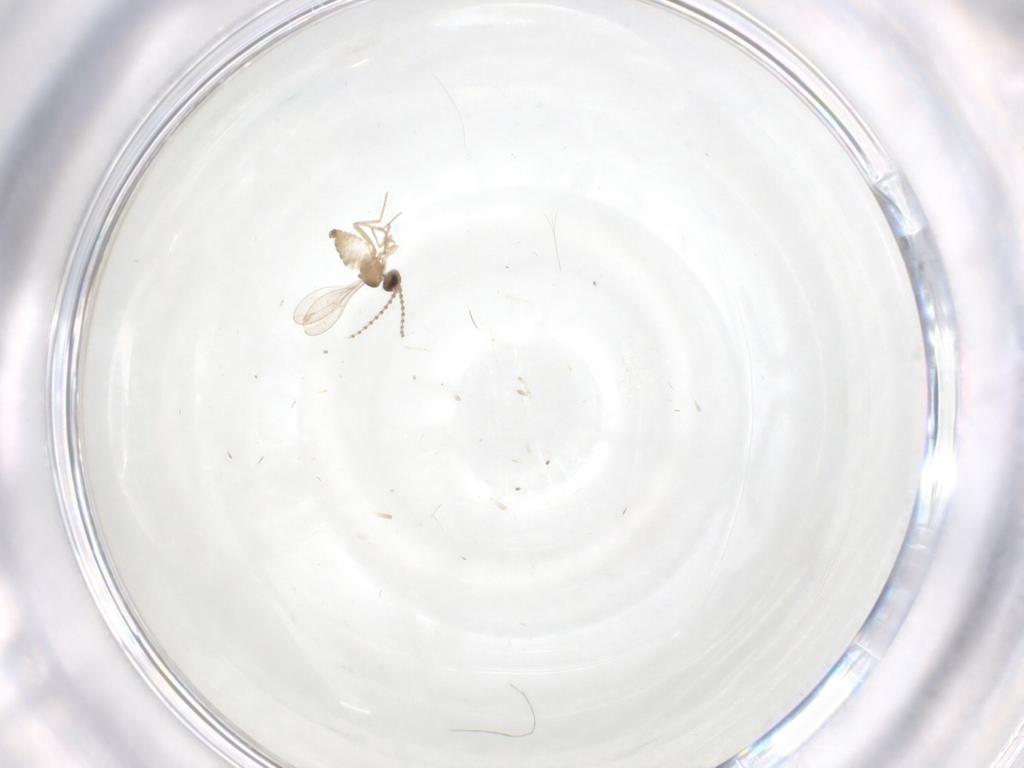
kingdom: Animalia
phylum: Arthropoda
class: Insecta
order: Diptera
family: Cecidomyiidae
